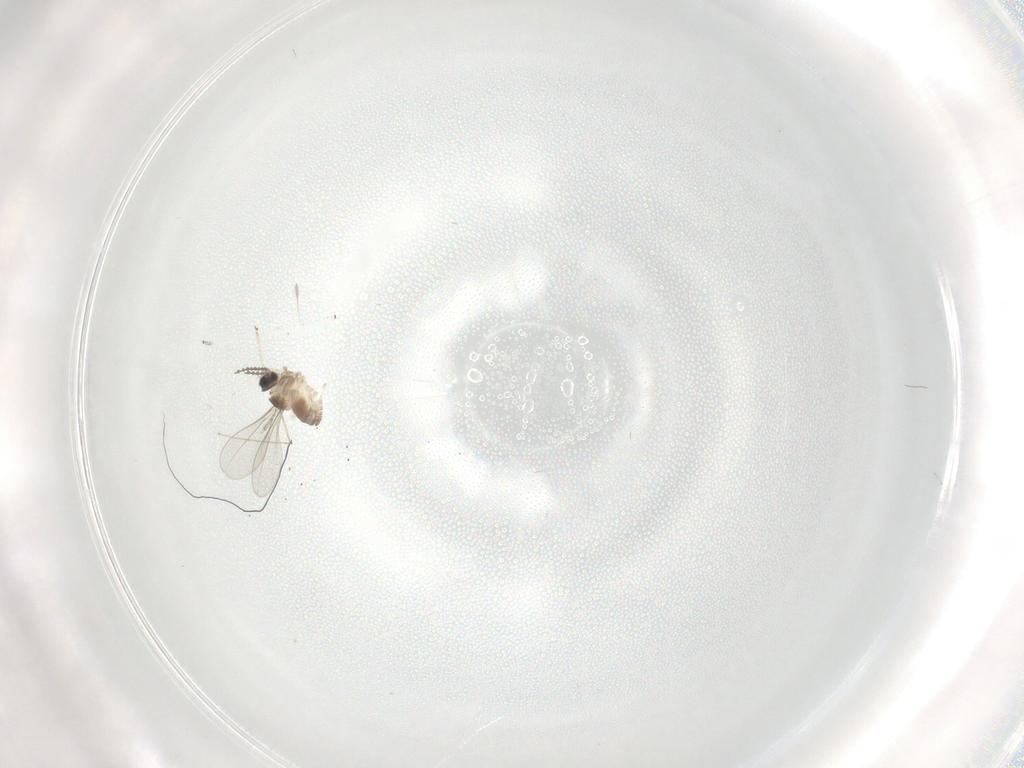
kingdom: Animalia
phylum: Arthropoda
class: Insecta
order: Diptera
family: Cecidomyiidae
